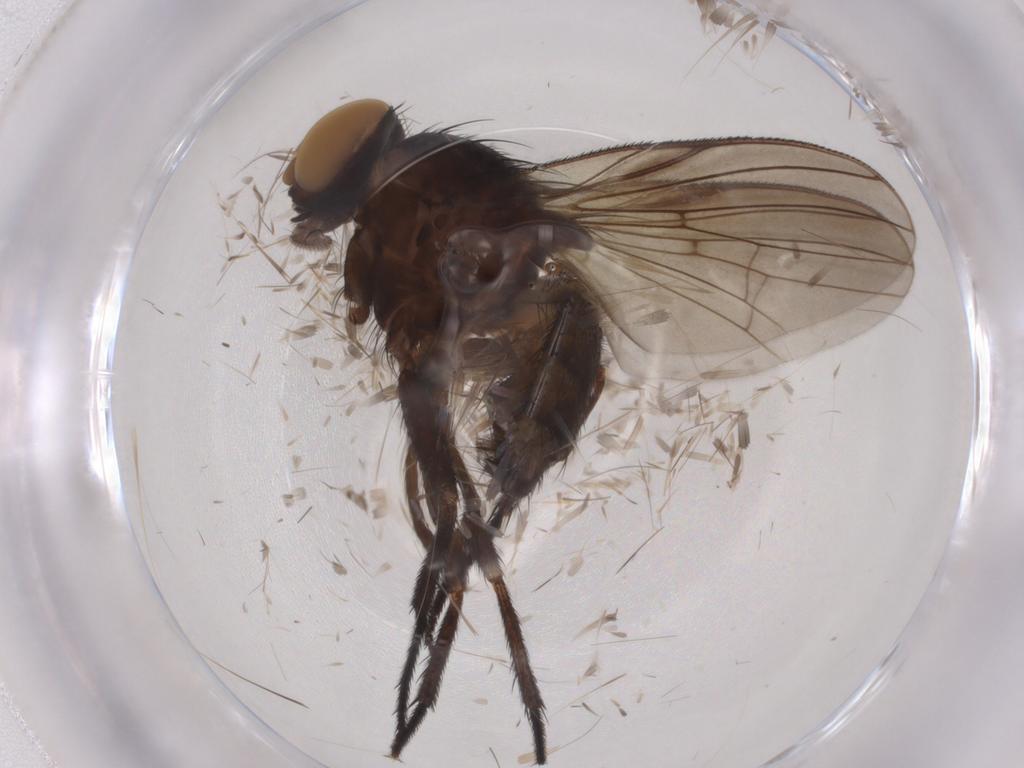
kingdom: Animalia
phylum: Arthropoda
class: Insecta
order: Diptera
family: Fanniidae
